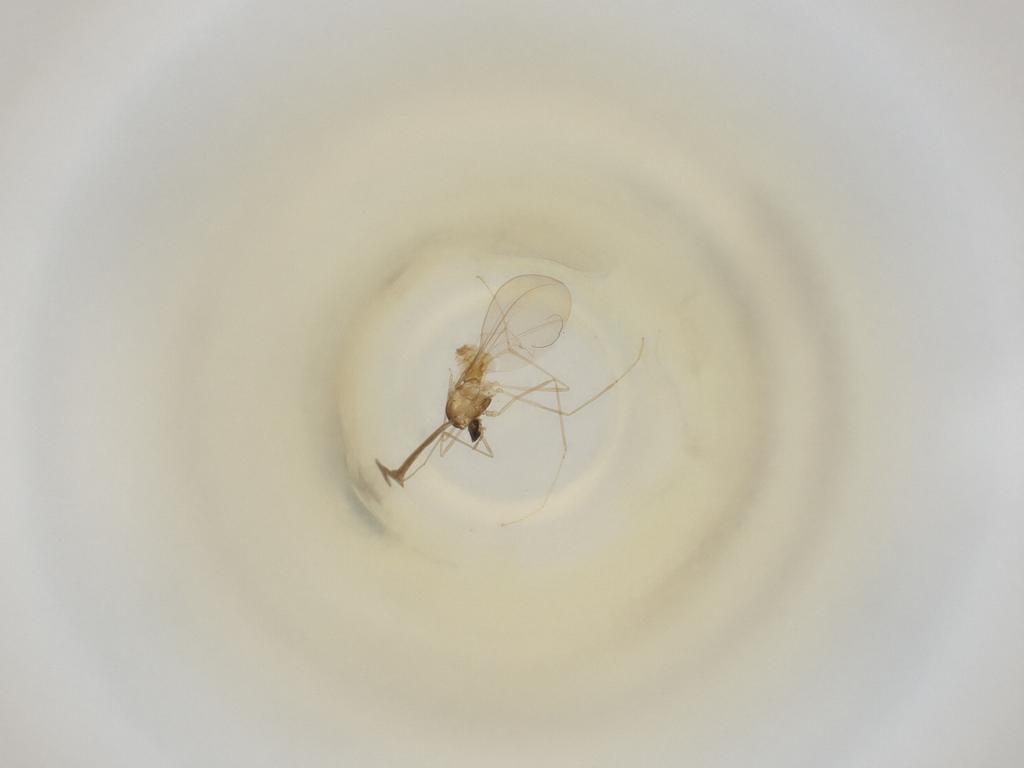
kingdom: Animalia
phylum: Arthropoda
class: Insecta
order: Diptera
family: Cecidomyiidae
